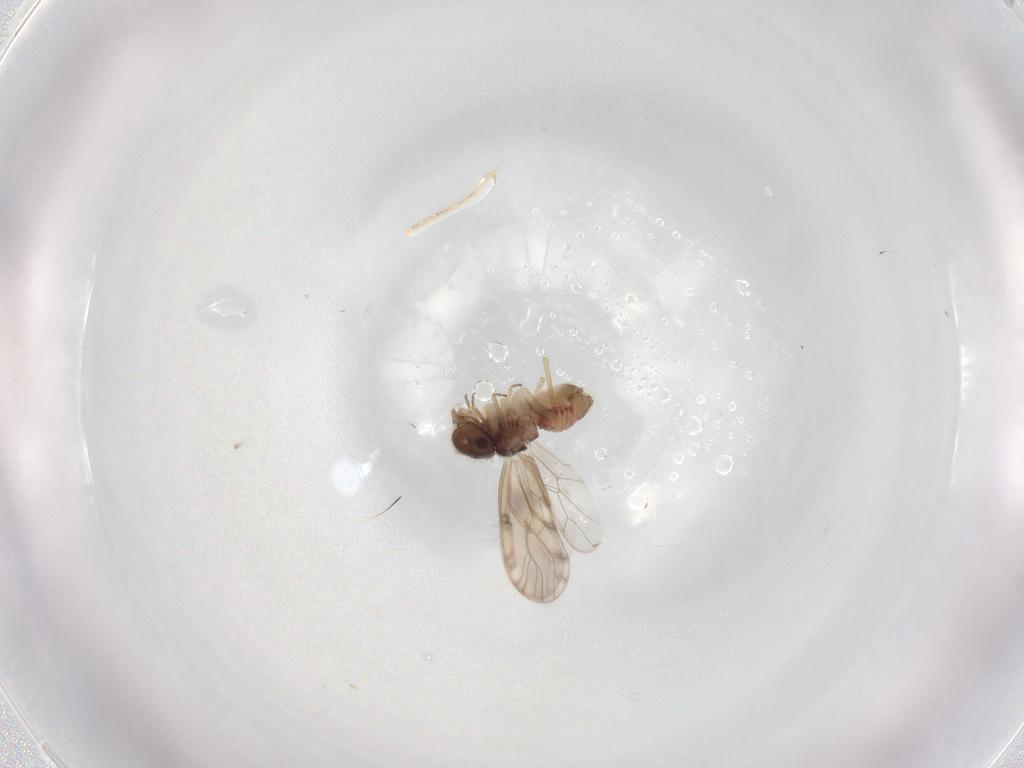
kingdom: Animalia
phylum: Arthropoda
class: Insecta
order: Psocodea
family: Peripsocidae
